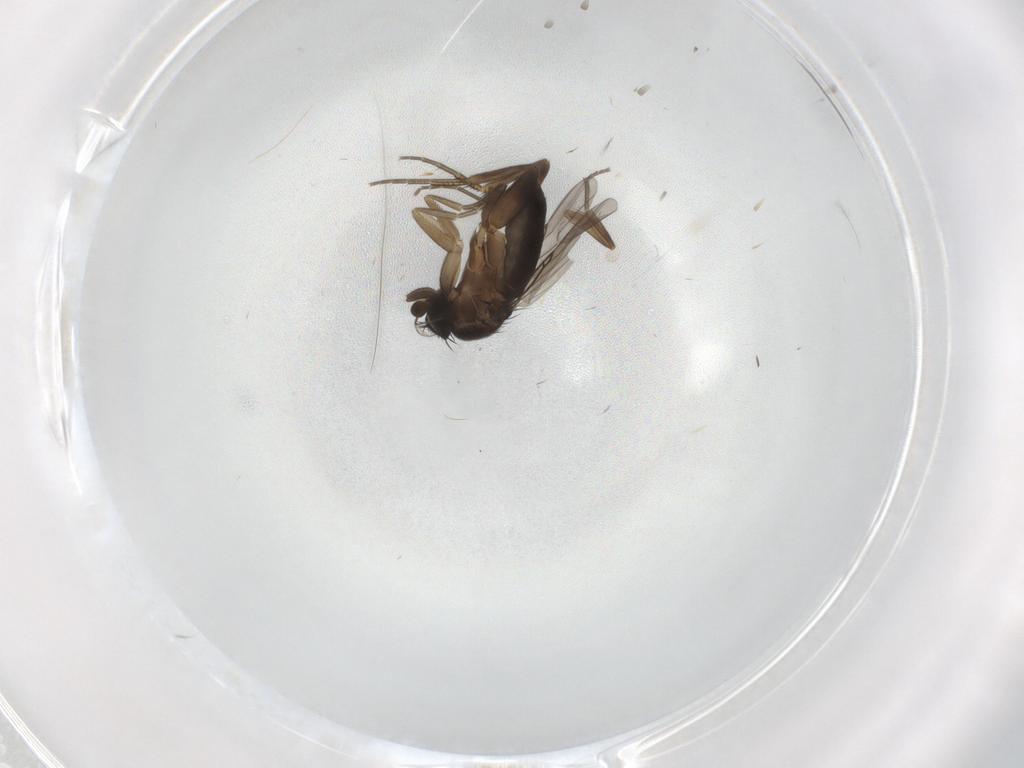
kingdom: Animalia
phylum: Arthropoda
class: Insecta
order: Diptera
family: Phoridae
